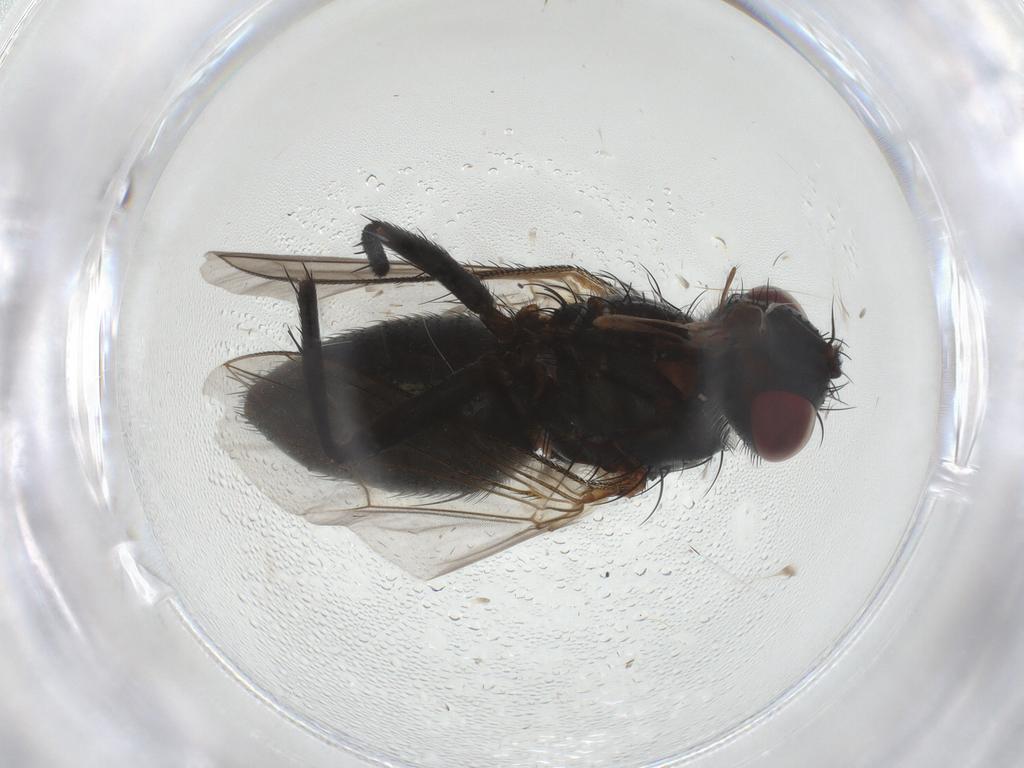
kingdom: Animalia
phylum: Arthropoda
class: Insecta
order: Diptera
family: Tachinidae
